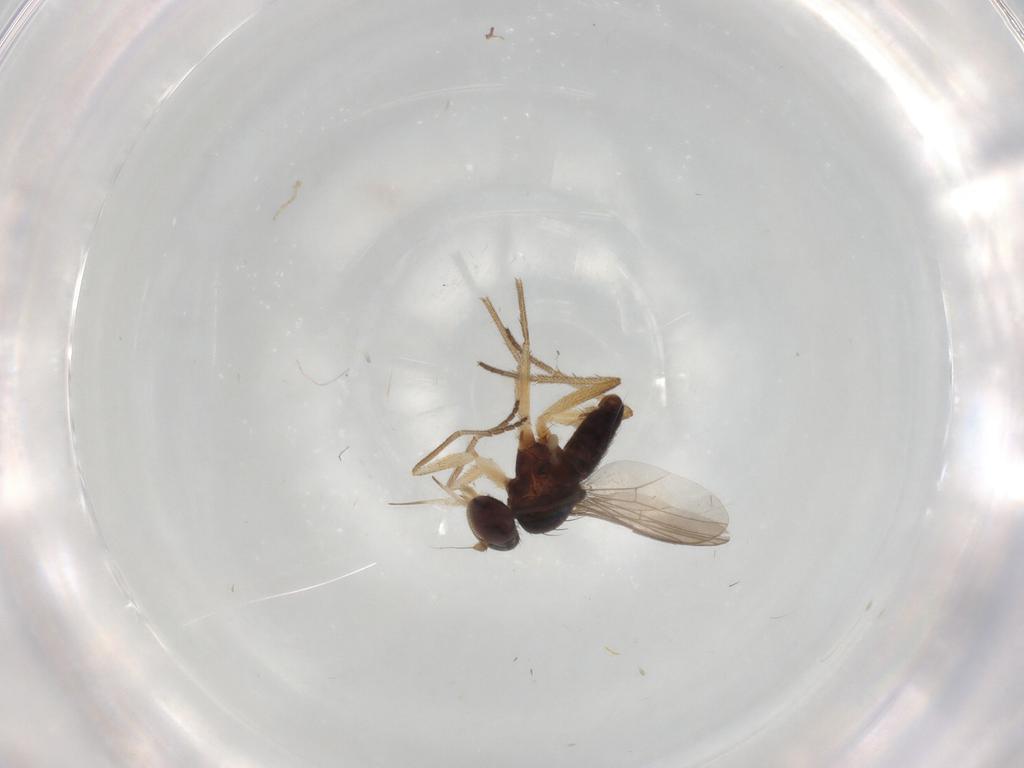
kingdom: Animalia
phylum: Arthropoda
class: Insecta
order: Diptera
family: Dolichopodidae
